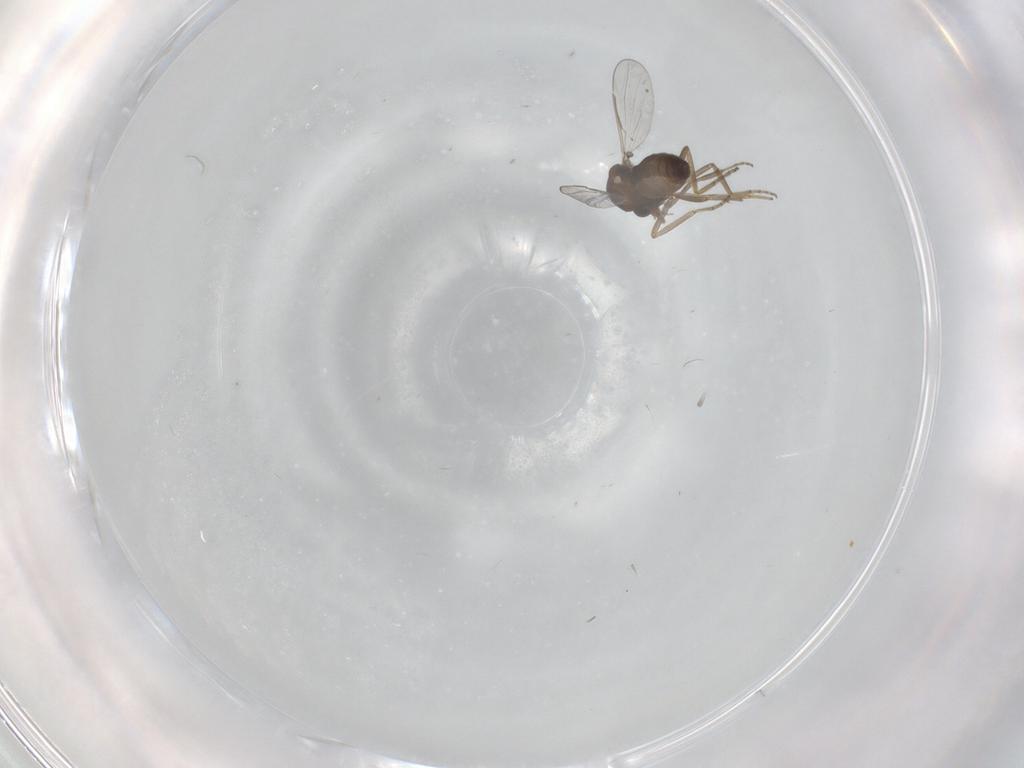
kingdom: Animalia
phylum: Arthropoda
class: Insecta
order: Diptera
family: Ceratopogonidae
